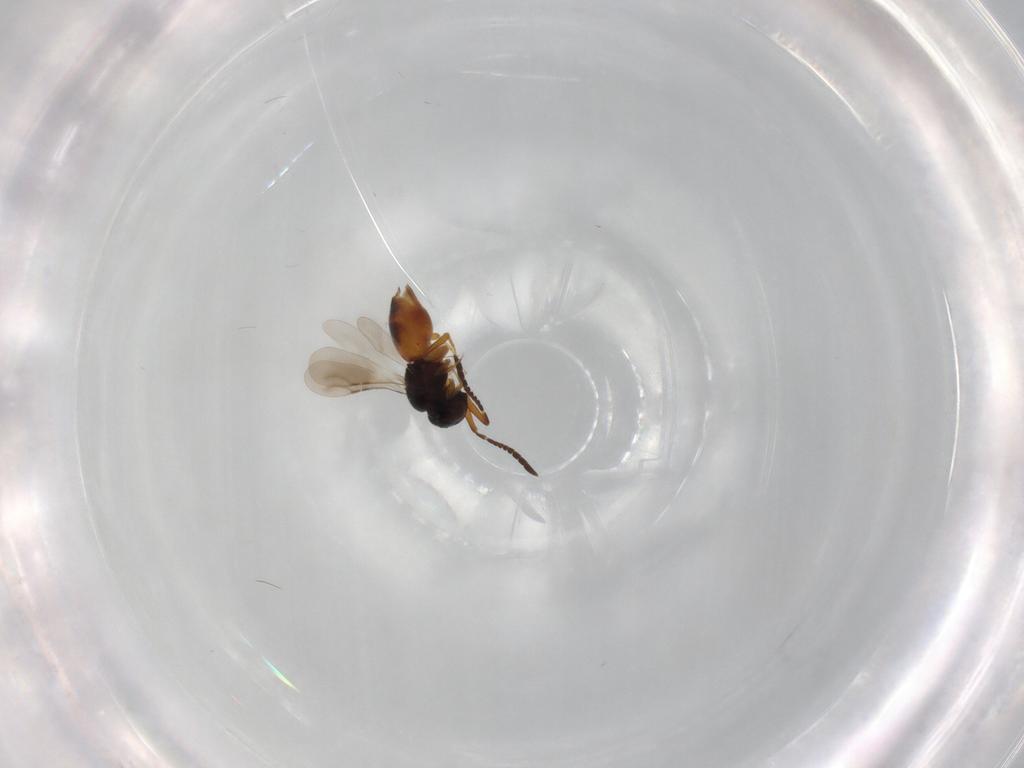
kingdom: Animalia
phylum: Arthropoda
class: Insecta
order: Hymenoptera
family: Ceraphronidae
